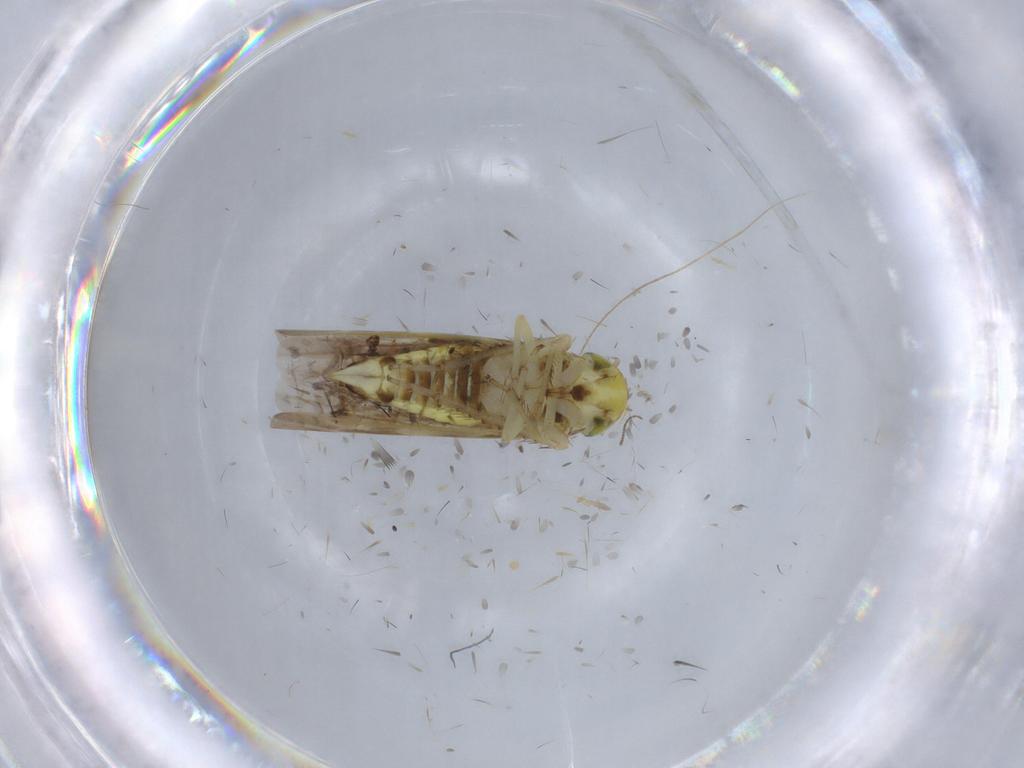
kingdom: Animalia
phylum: Arthropoda
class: Insecta
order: Hemiptera
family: Cicadellidae
